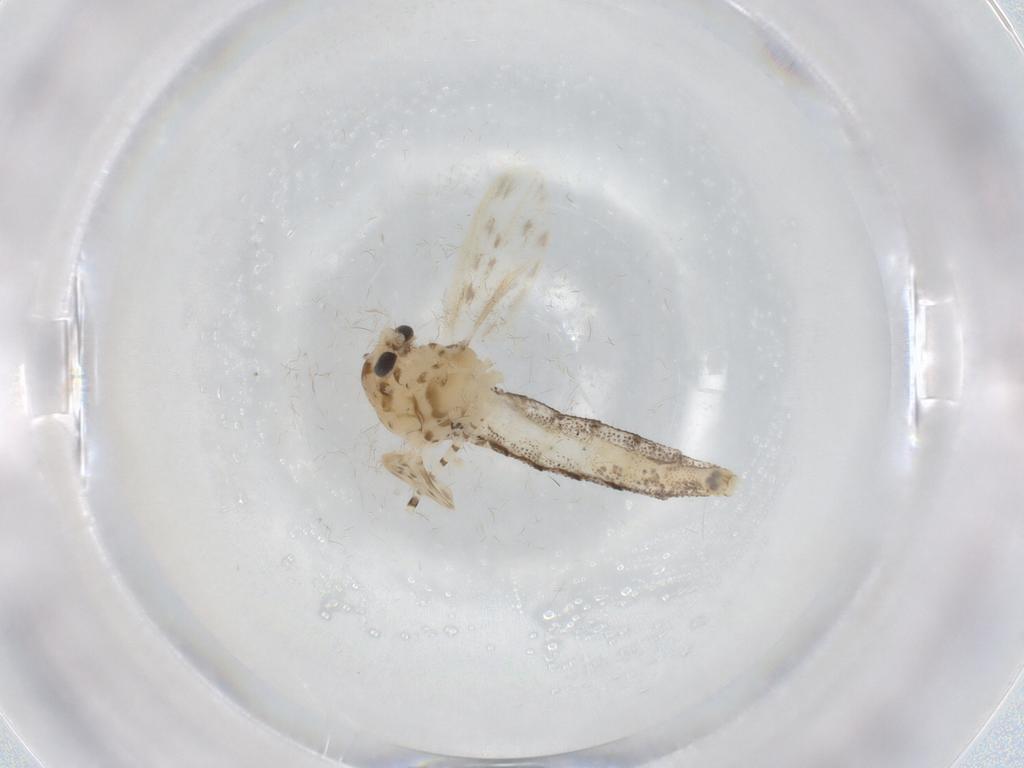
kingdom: Animalia
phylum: Arthropoda
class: Insecta
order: Diptera
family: Chaoboridae
